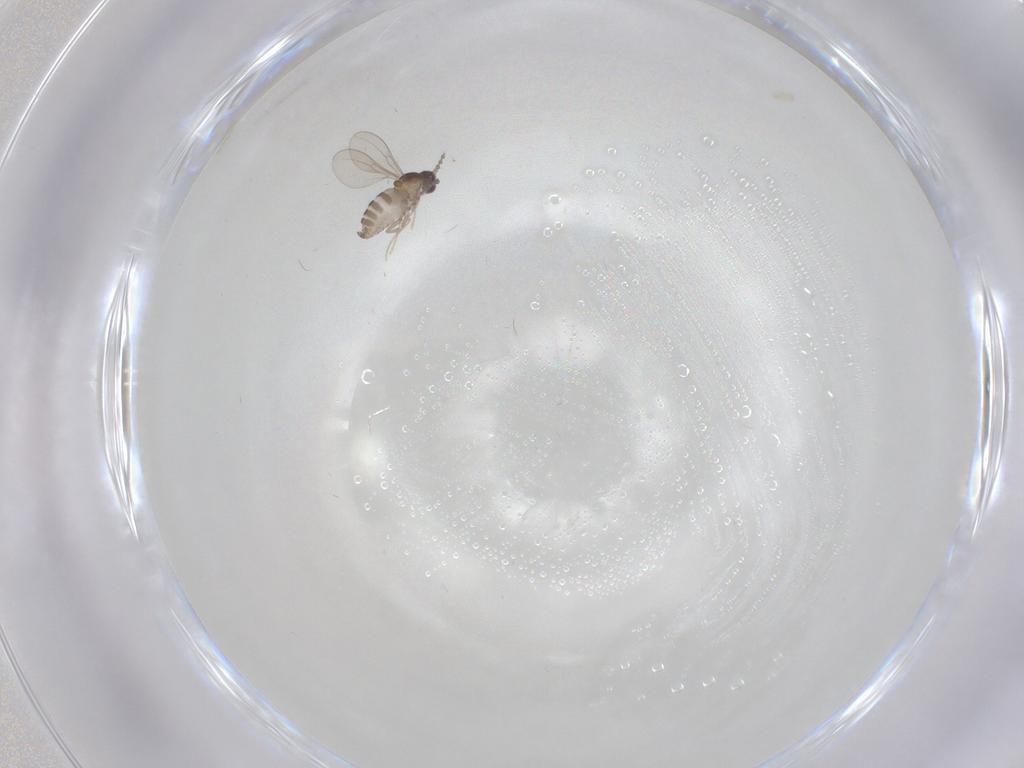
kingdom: Animalia
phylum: Arthropoda
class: Insecta
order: Diptera
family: Cecidomyiidae
